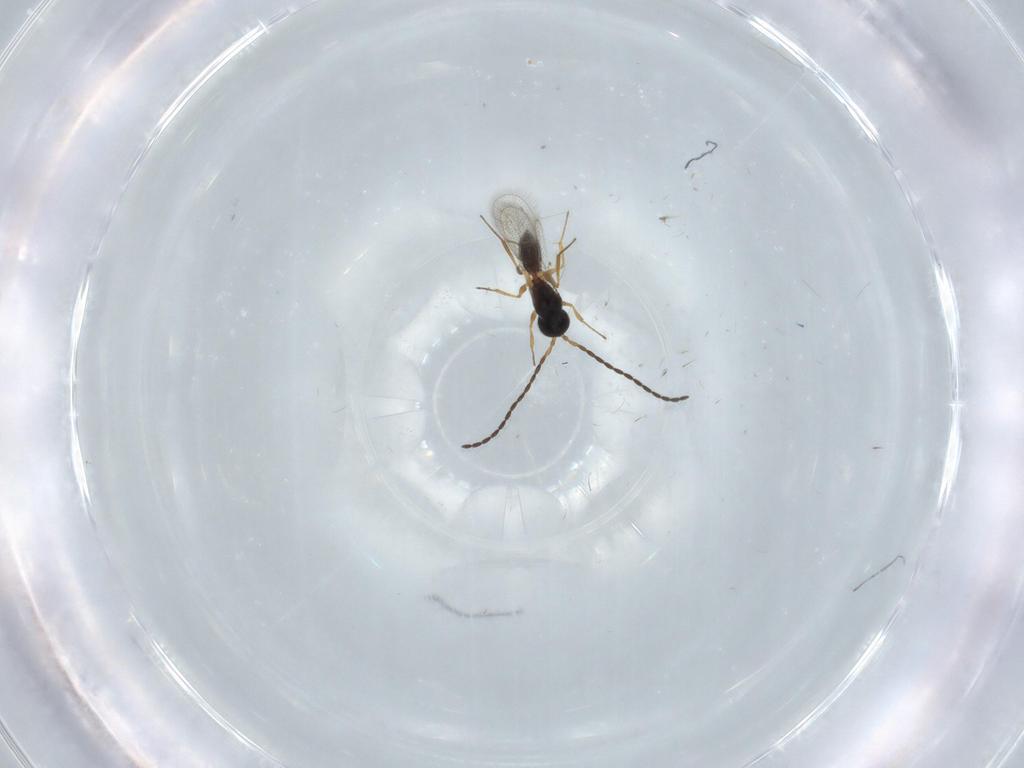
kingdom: Animalia
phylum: Arthropoda
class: Insecta
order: Hymenoptera
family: Figitidae
